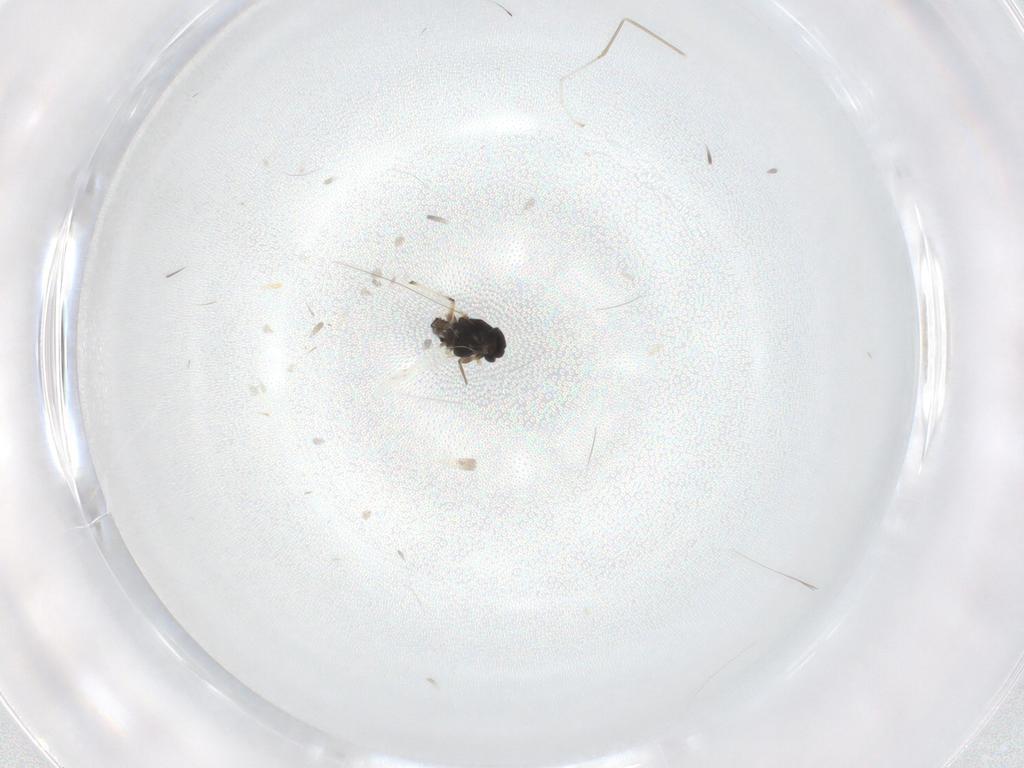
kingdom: Animalia
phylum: Arthropoda
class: Insecta
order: Diptera
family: Chironomidae
